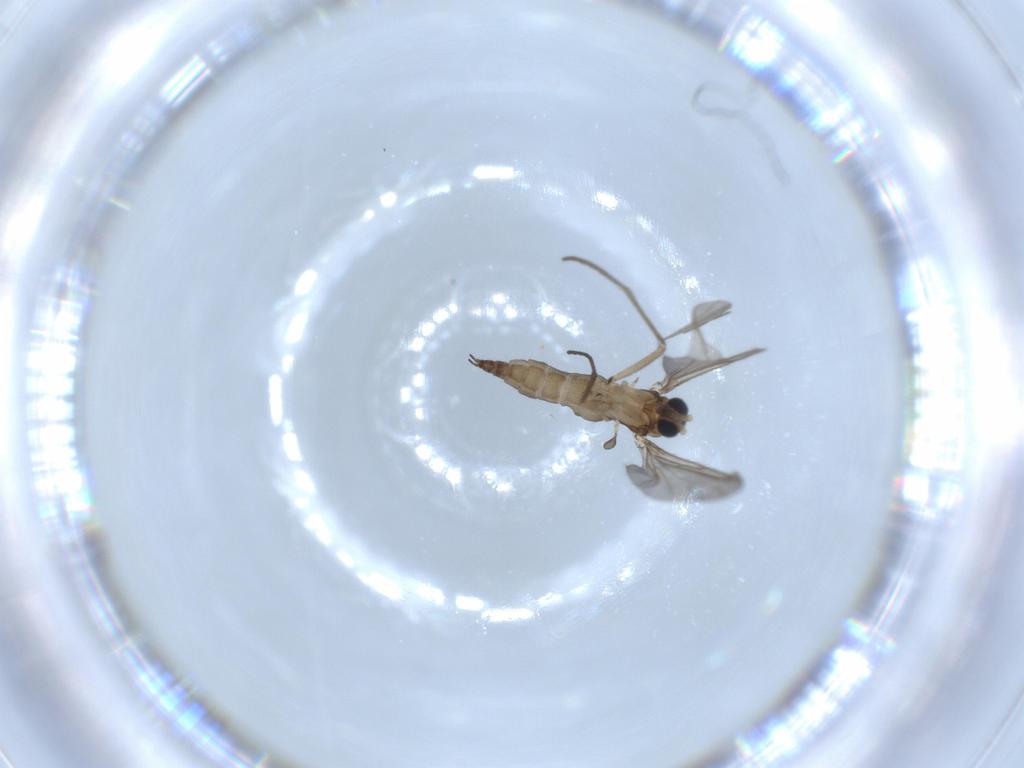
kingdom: Animalia
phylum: Arthropoda
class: Insecta
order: Diptera
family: Sciaridae
